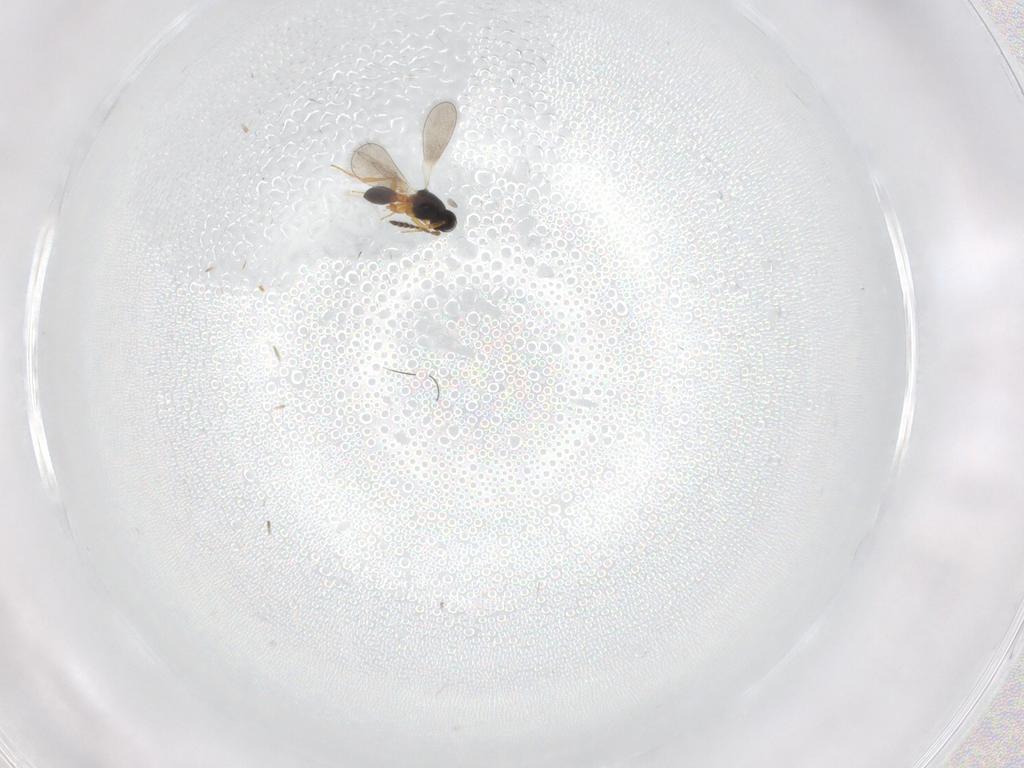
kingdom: Animalia
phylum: Arthropoda
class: Insecta
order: Hymenoptera
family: Platygastridae
